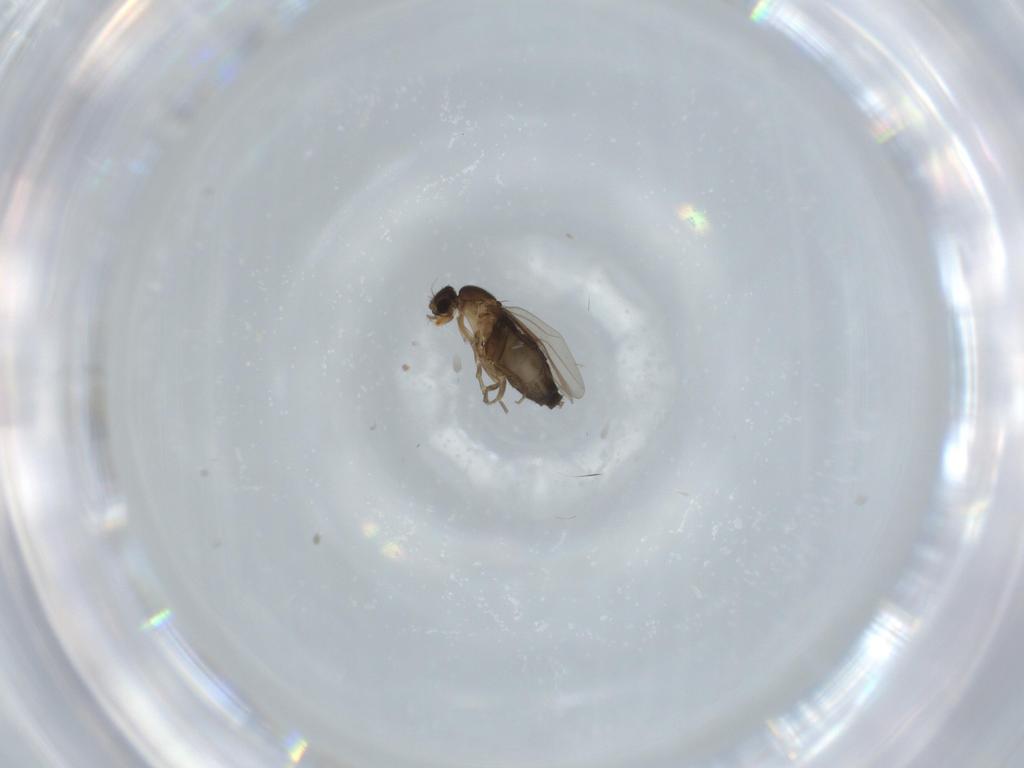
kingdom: Animalia
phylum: Arthropoda
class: Insecta
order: Diptera
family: Phoridae
